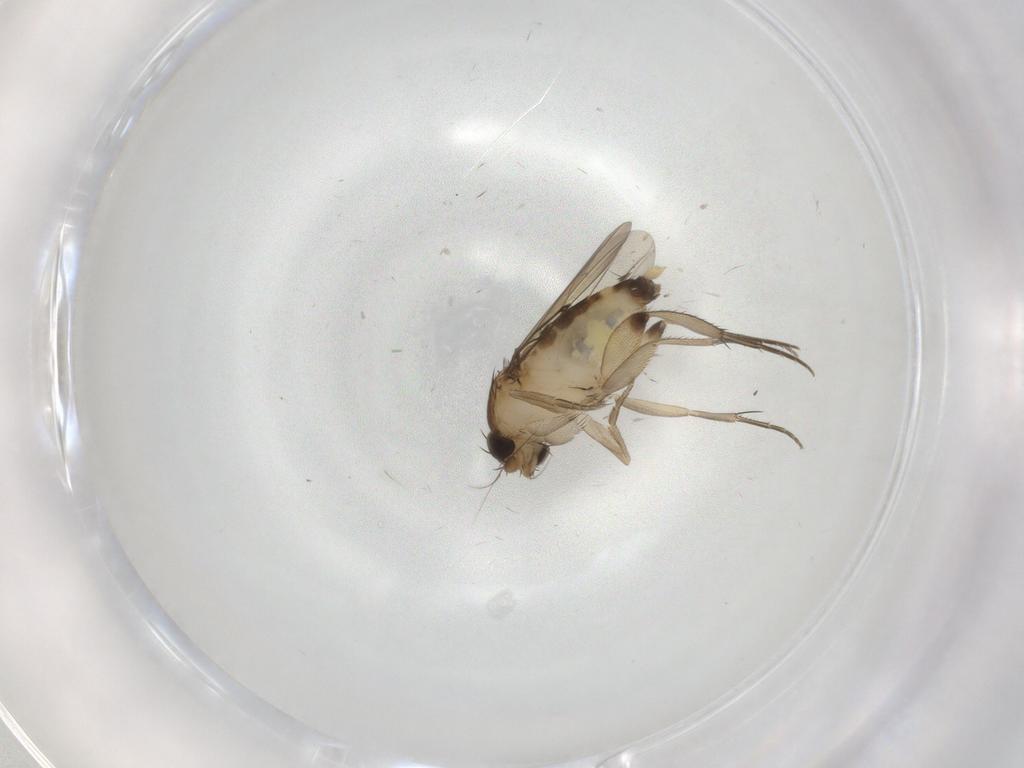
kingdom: Animalia
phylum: Arthropoda
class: Insecta
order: Diptera
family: Phoridae
